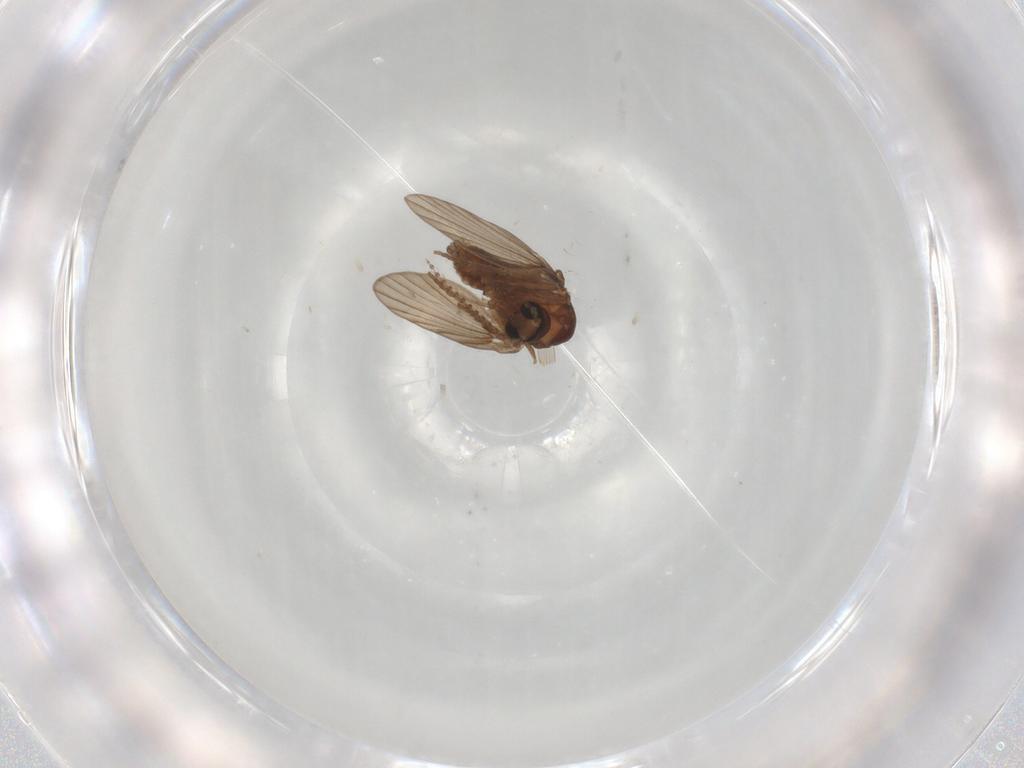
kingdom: Animalia
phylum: Arthropoda
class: Insecta
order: Diptera
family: Psychodidae
